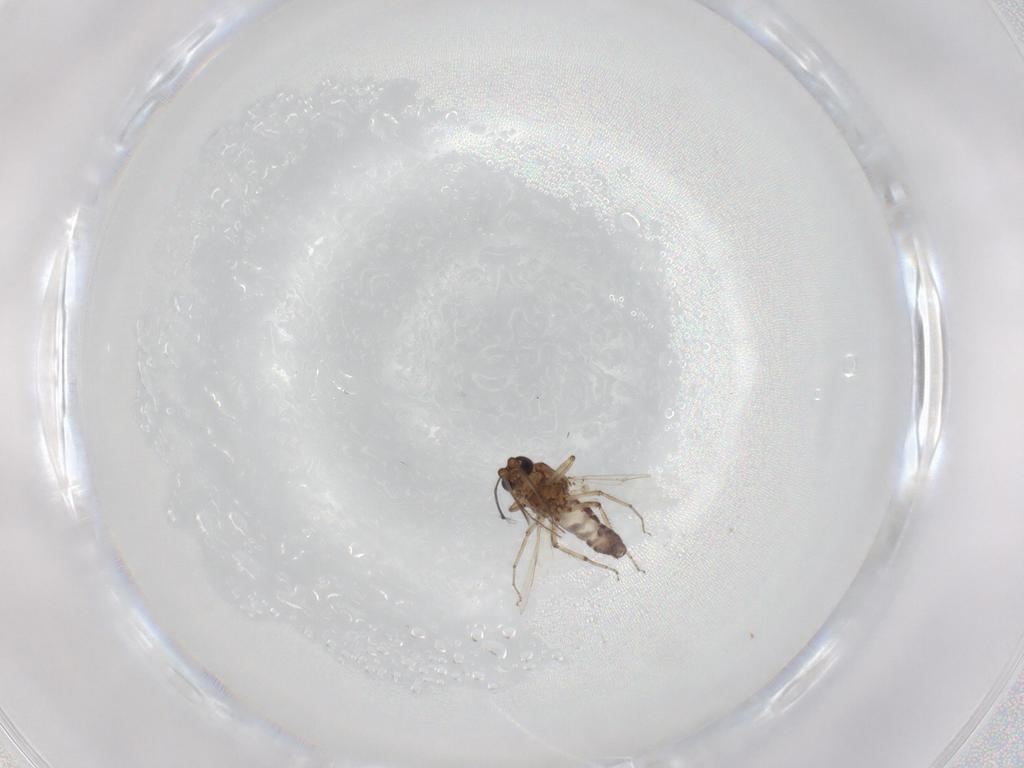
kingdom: Animalia
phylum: Arthropoda
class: Insecta
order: Diptera
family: Ceratopogonidae
